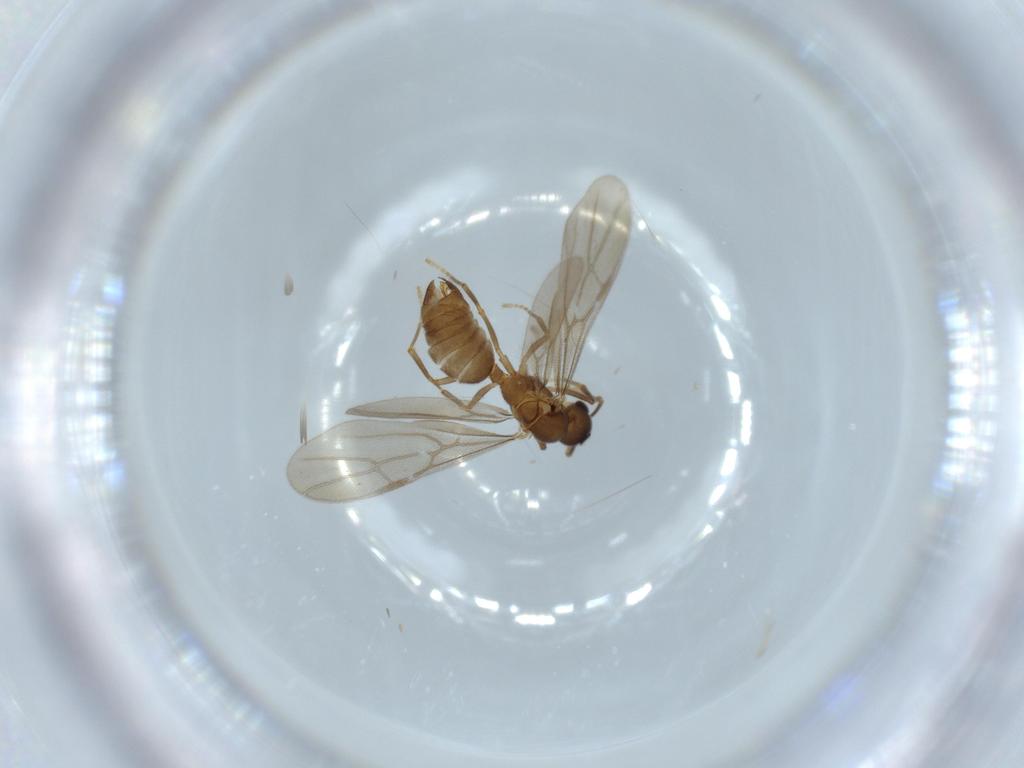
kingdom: Animalia
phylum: Arthropoda
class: Insecta
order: Hymenoptera
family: Formicidae
